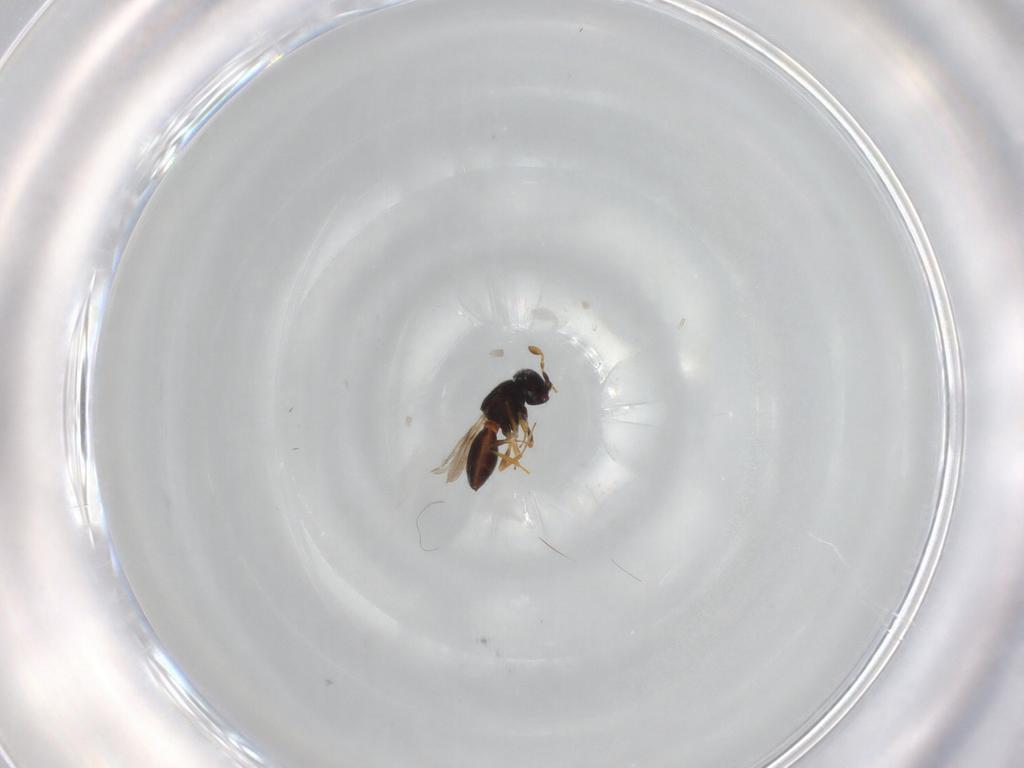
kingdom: Animalia
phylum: Arthropoda
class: Insecta
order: Hymenoptera
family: Scelionidae
